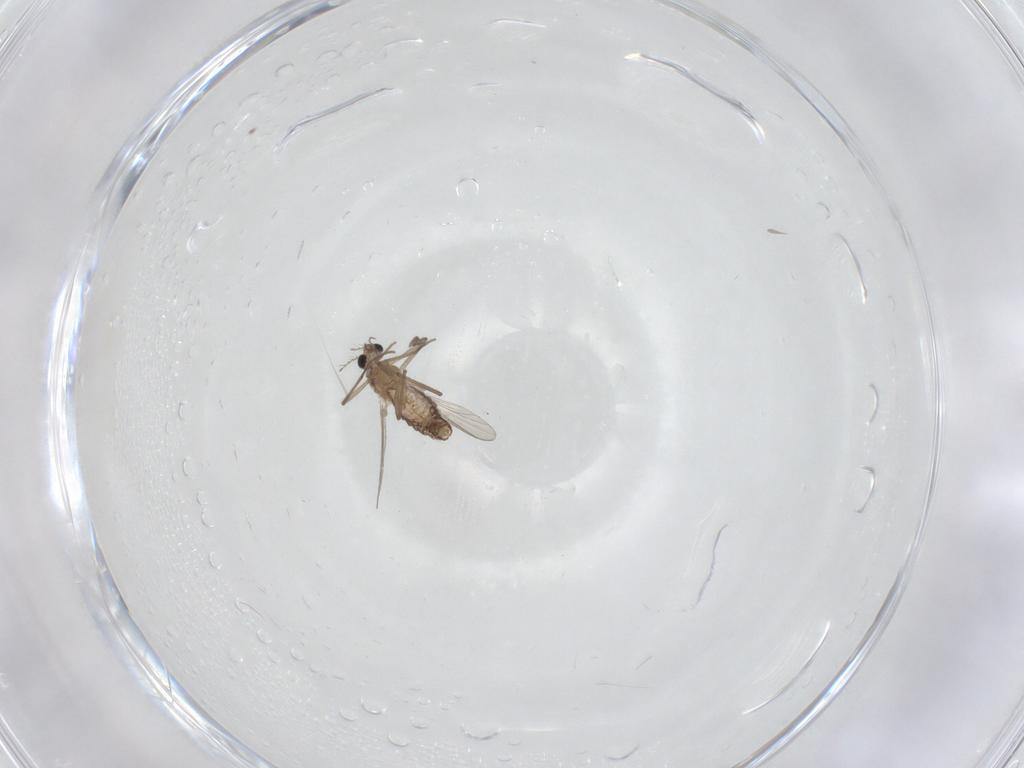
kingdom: Animalia
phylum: Arthropoda
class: Insecta
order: Diptera
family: Chironomidae
